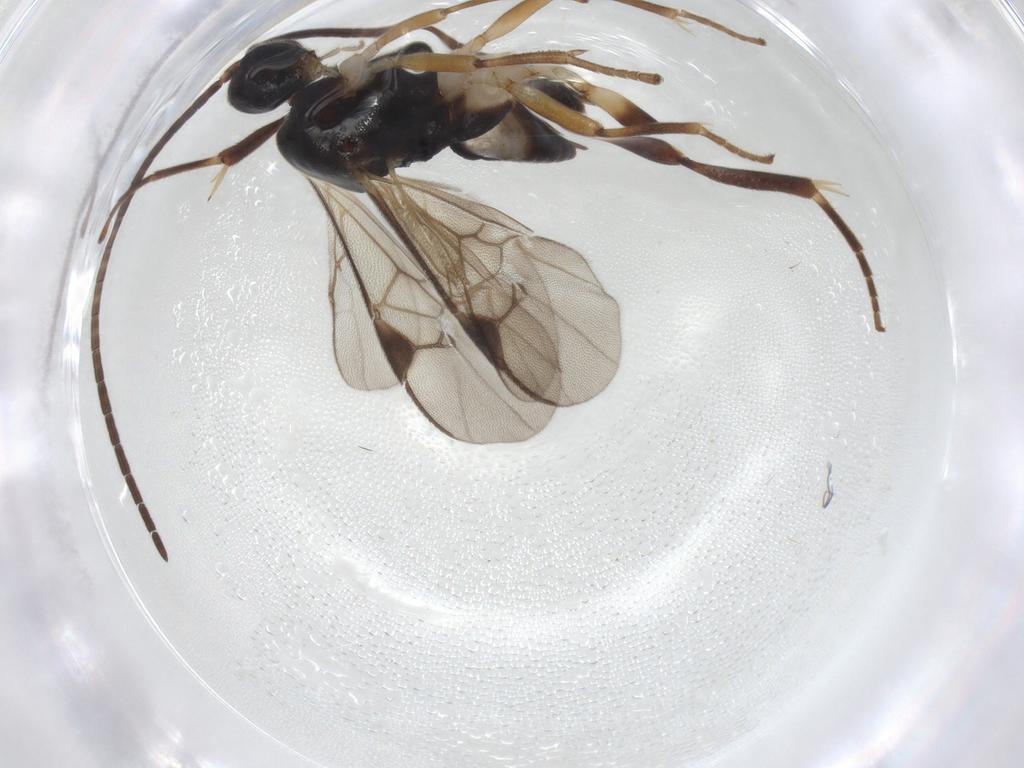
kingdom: Animalia
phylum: Arthropoda
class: Insecta
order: Hymenoptera
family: Braconidae
